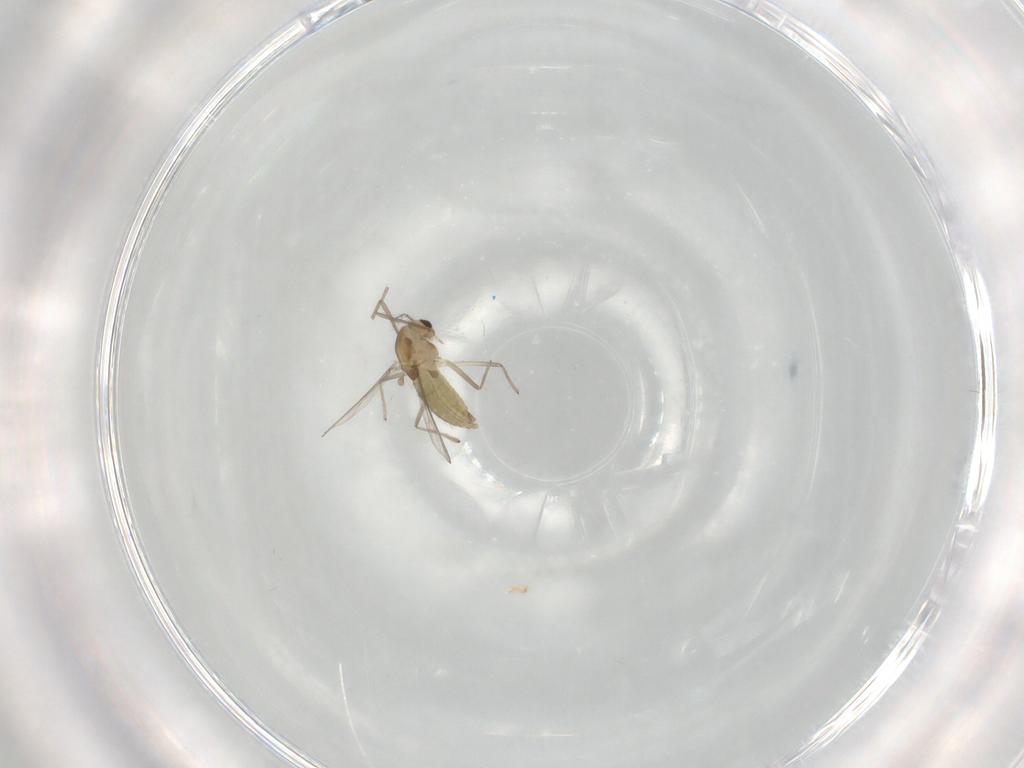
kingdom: Animalia
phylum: Arthropoda
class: Insecta
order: Diptera
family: Chironomidae
